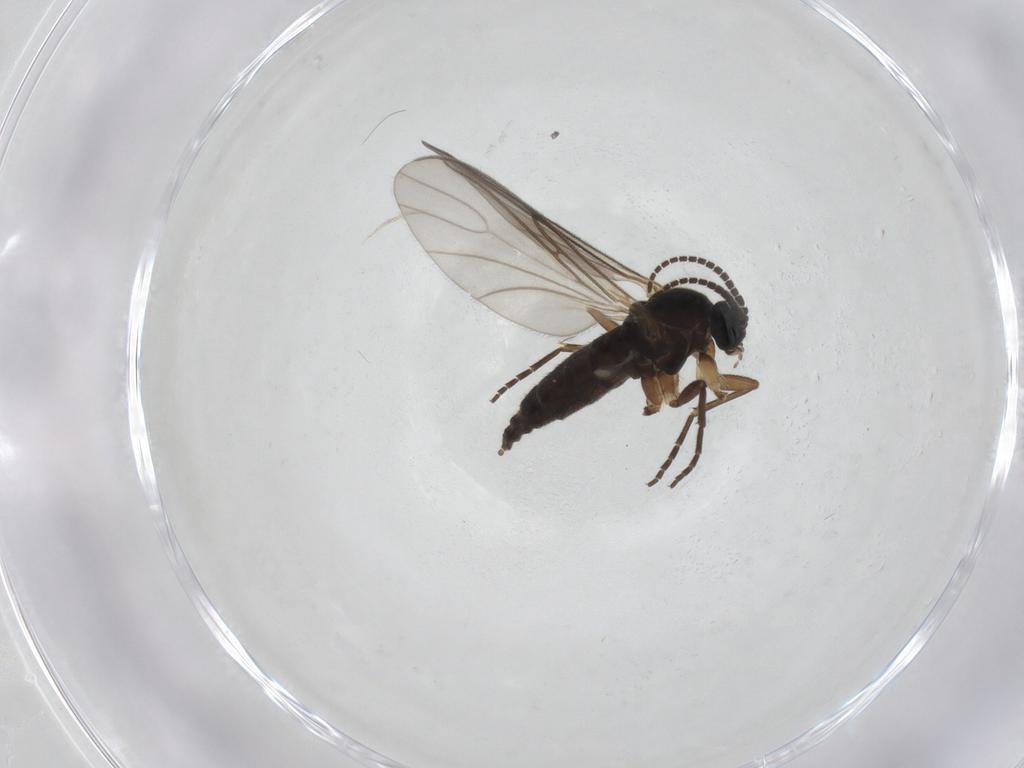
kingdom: Animalia
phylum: Arthropoda
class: Insecta
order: Diptera
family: Sciaridae
